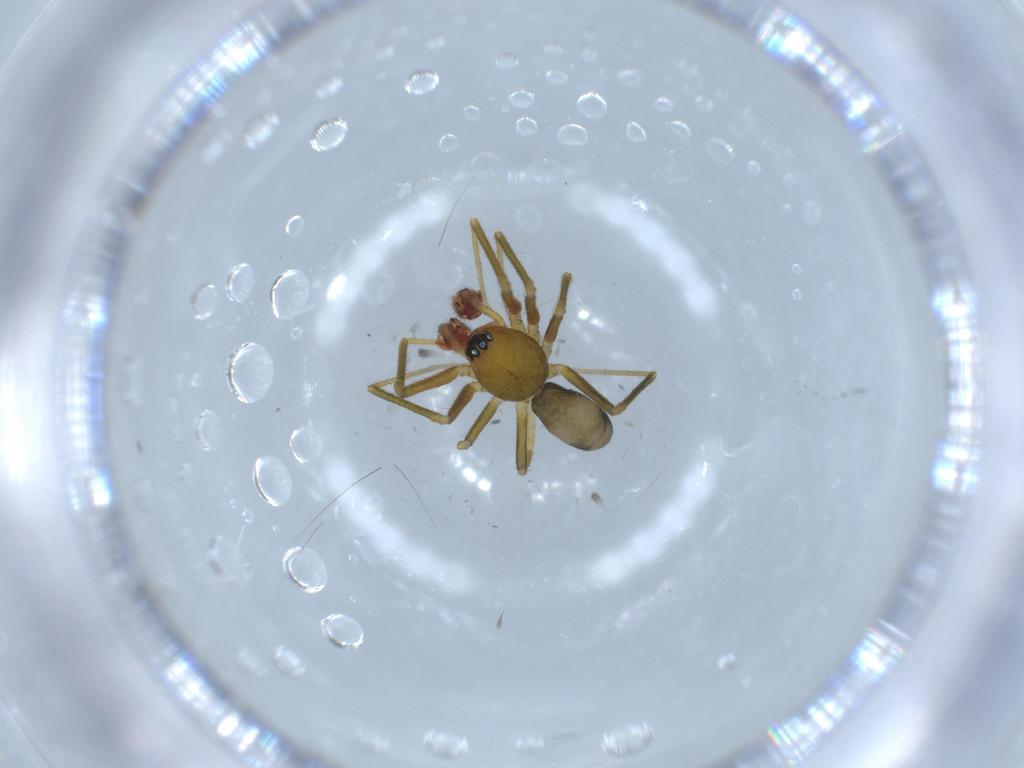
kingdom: Animalia
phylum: Arthropoda
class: Arachnida
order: Araneae
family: Linyphiidae
